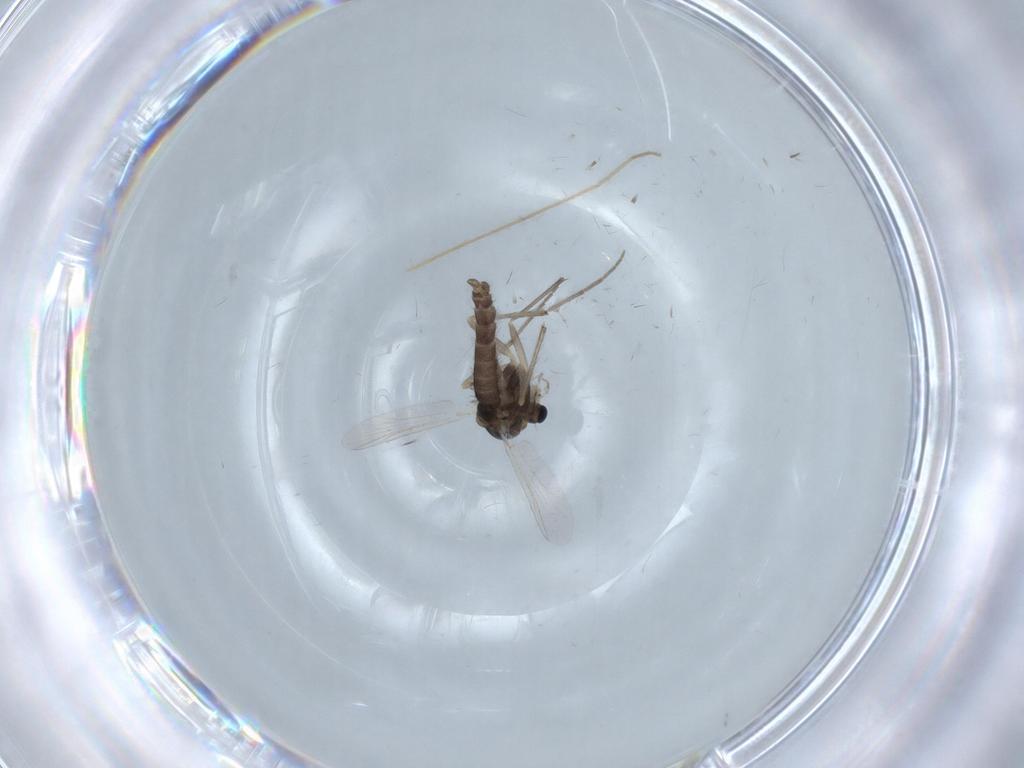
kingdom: Animalia
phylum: Arthropoda
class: Insecta
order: Diptera
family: Chironomidae
